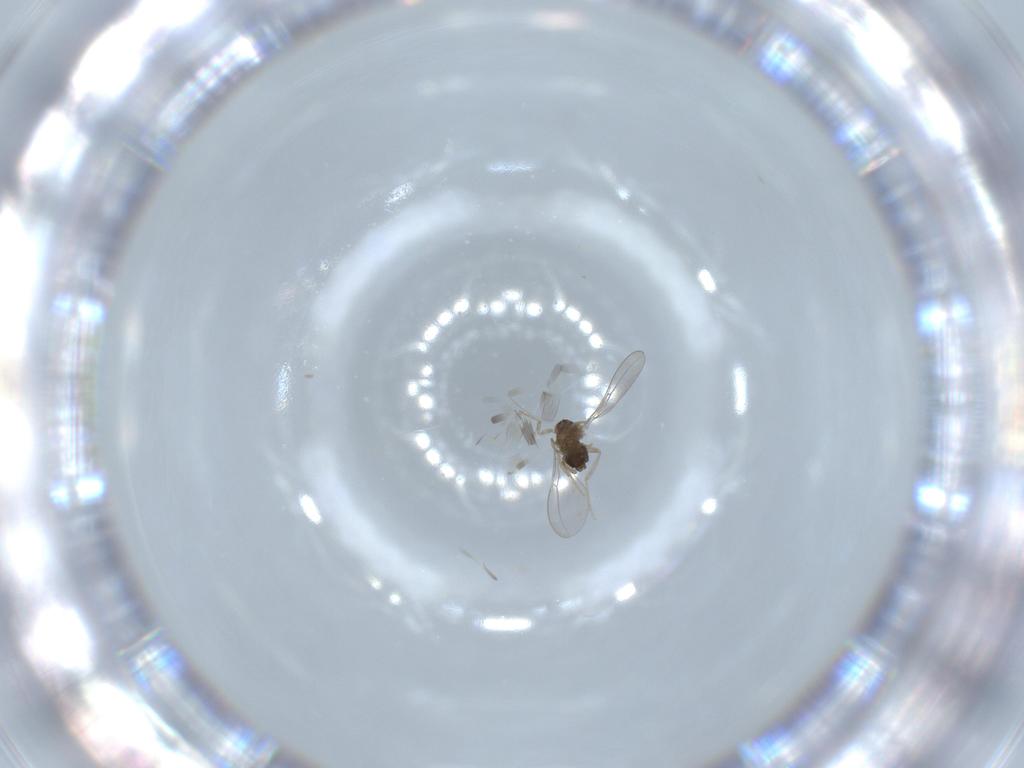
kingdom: Animalia
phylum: Arthropoda
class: Insecta
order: Diptera
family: Cecidomyiidae
